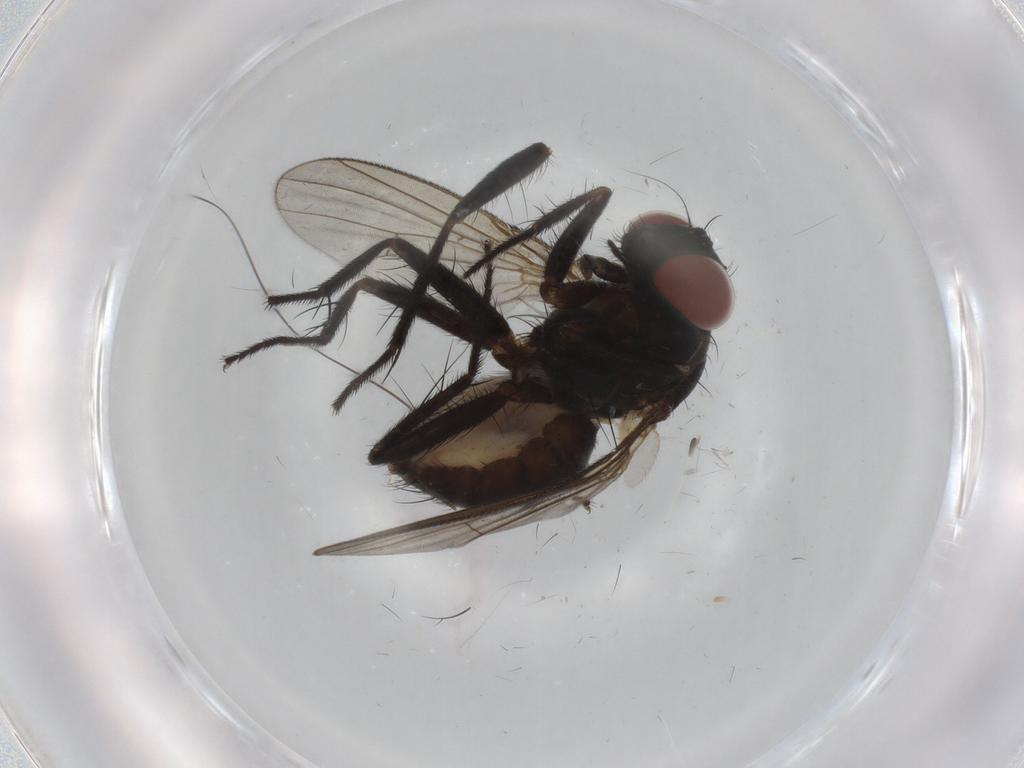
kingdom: Animalia
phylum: Arthropoda
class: Insecta
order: Diptera
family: Muscidae
